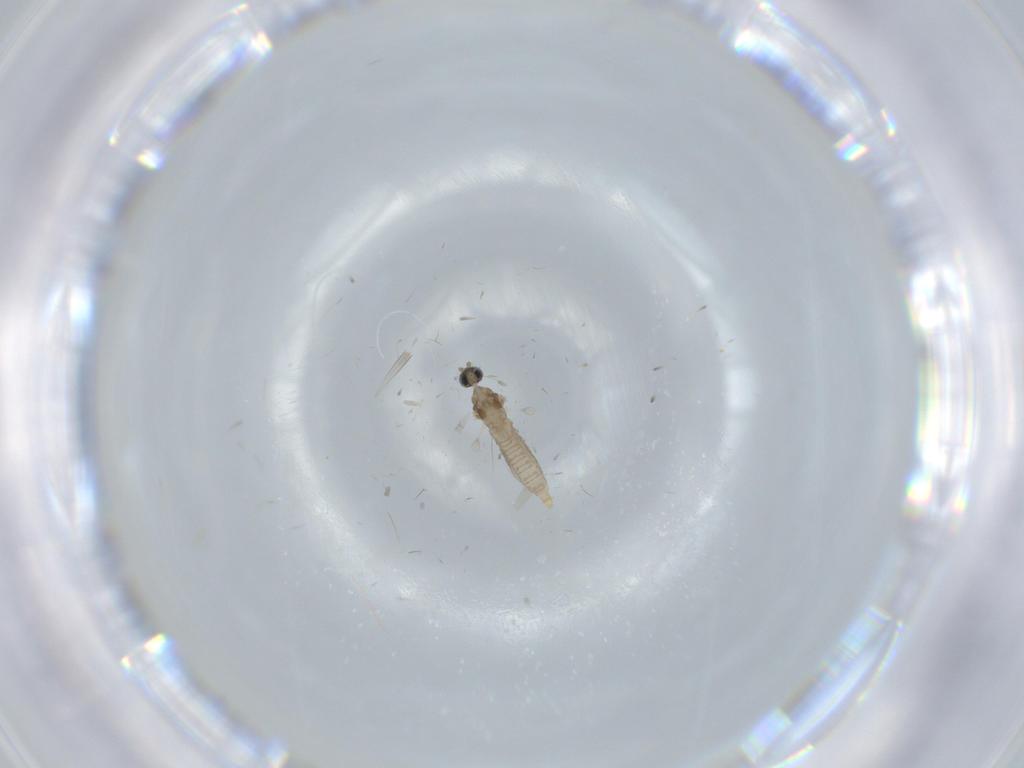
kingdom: Animalia
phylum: Arthropoda
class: Insecta
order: Diptera
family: Cecidomyiidae
